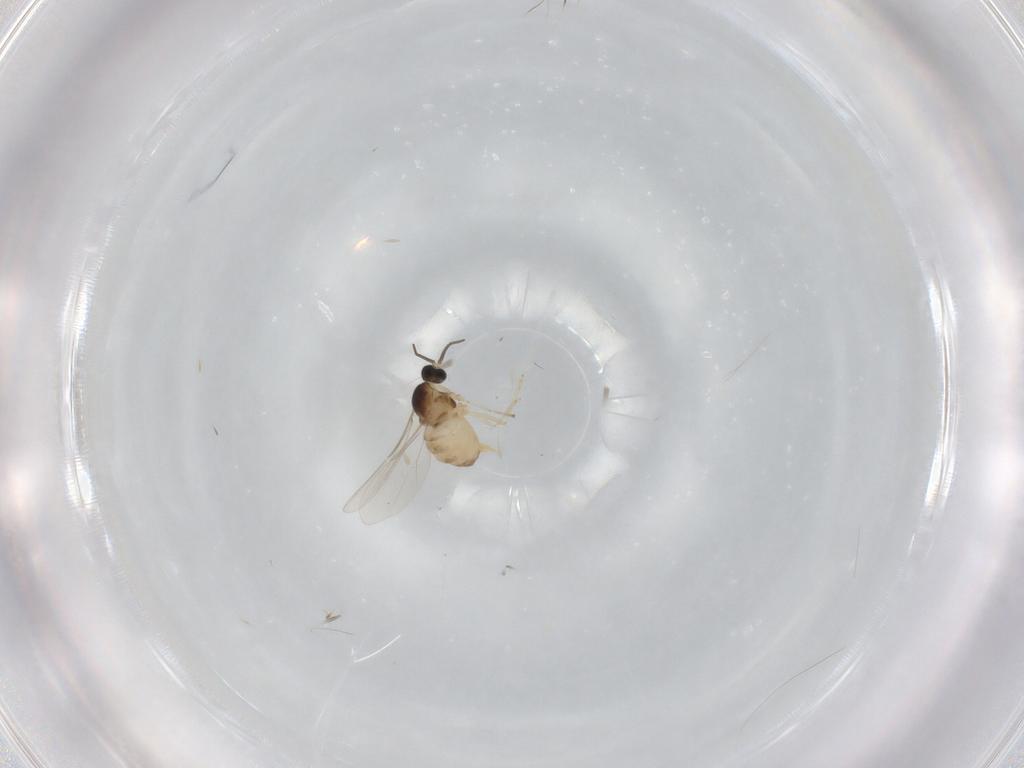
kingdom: Animalia
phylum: Arthropoda
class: Insecta
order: Diptera
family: Cecidomyiidae
